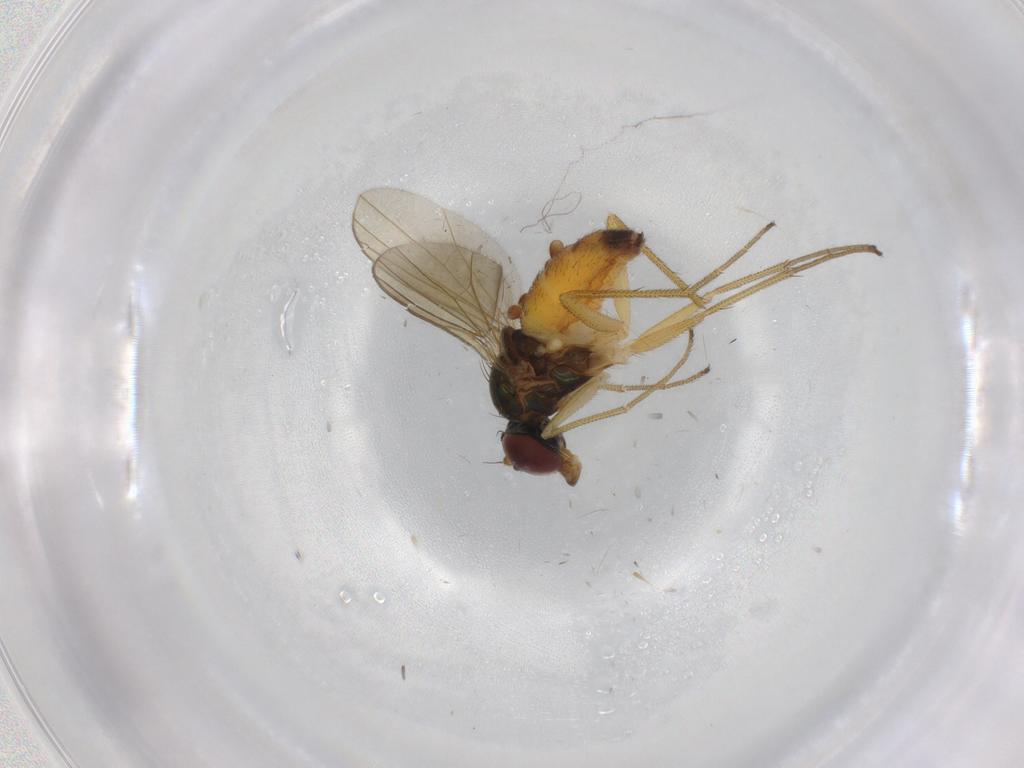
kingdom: Animalia
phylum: Arthropoda
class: Insecta
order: Diptera
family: Dolichopodidae
